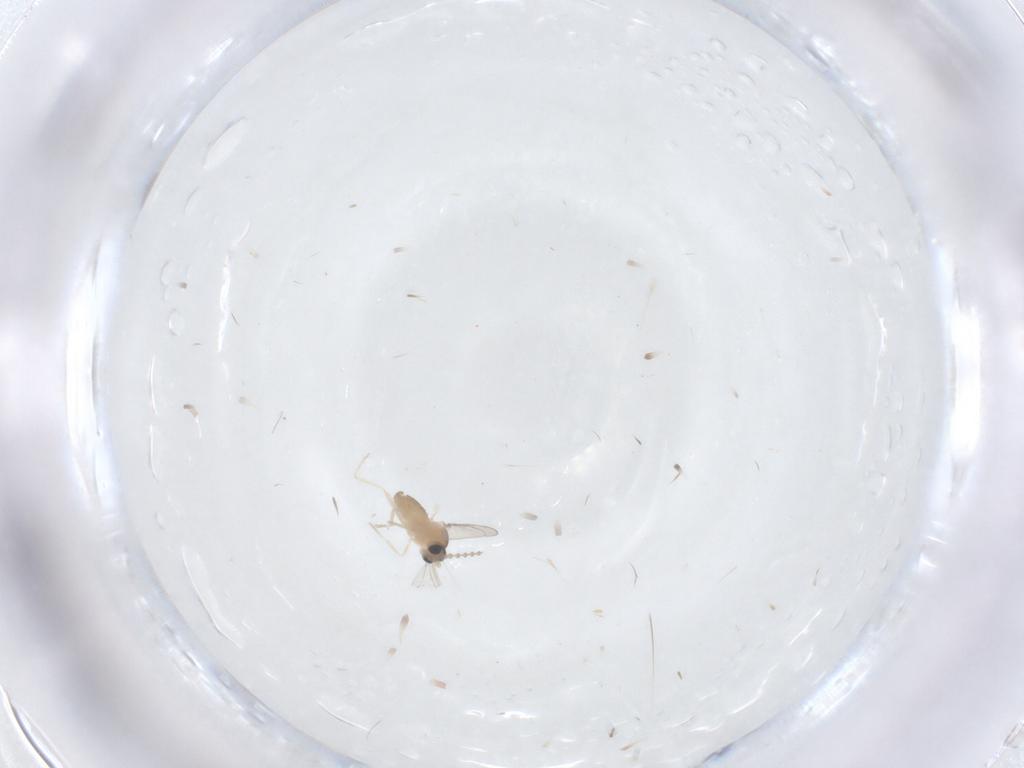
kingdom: Animalia
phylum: Arthropoda
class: Insecta
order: Diptera
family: Limoniidae
